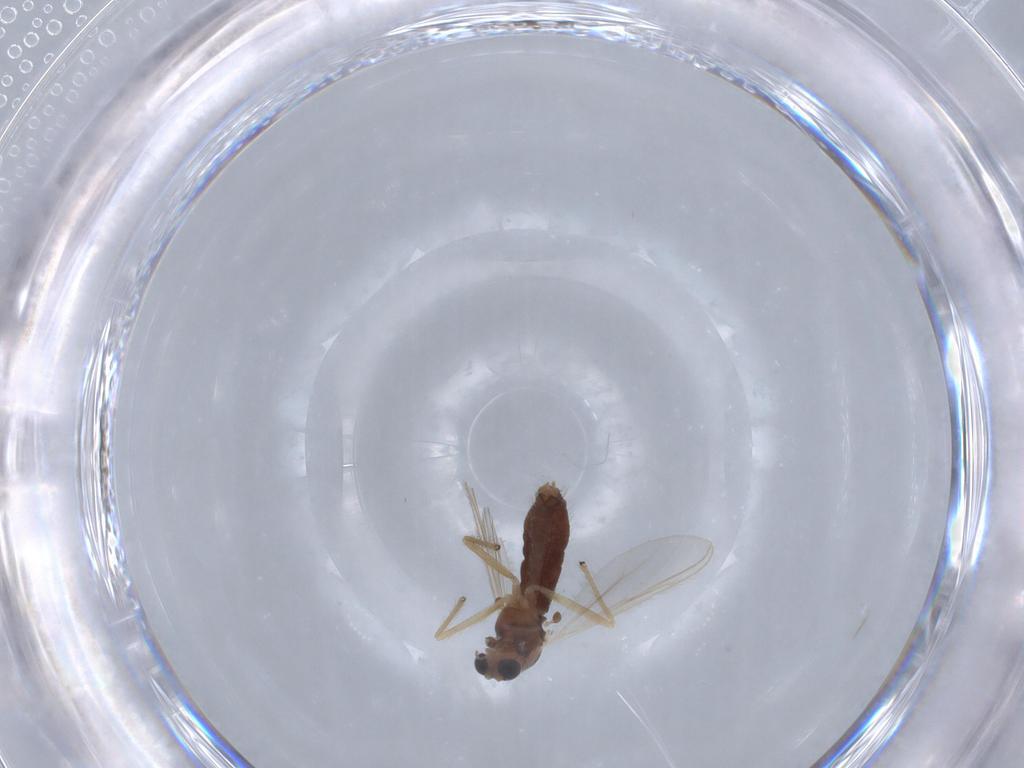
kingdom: Animalia
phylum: Arthropoda
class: Insecta
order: Diptera
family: Chironomidae
